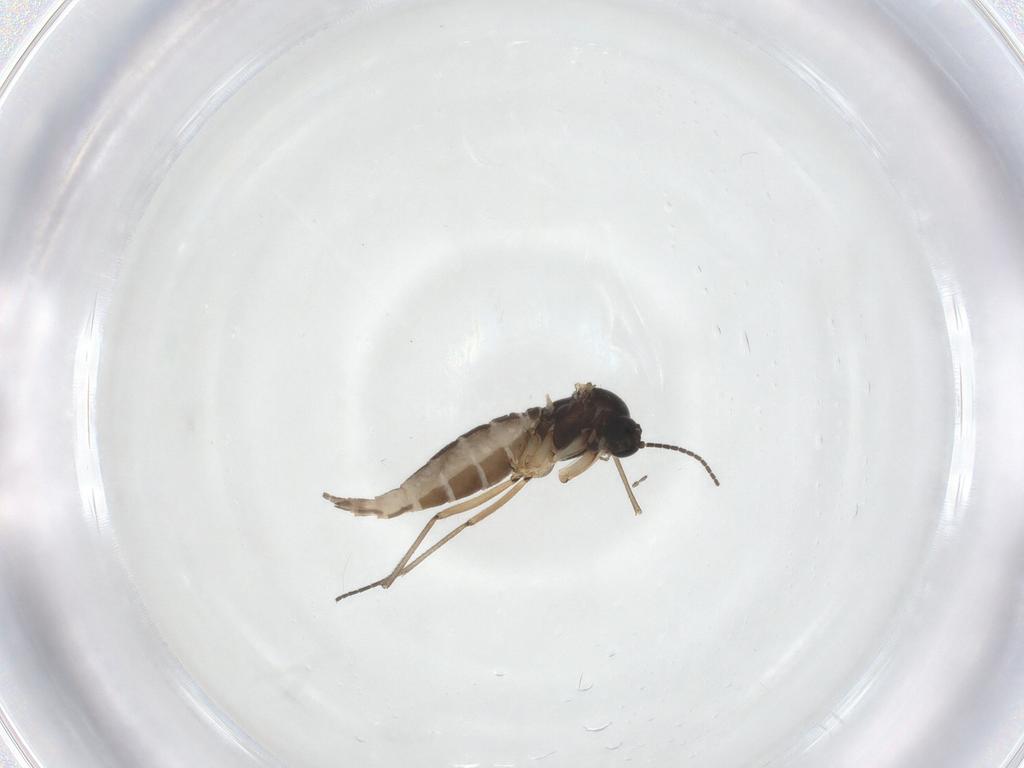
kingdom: Animalia
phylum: Arthropoda
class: Insecta
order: Diptera
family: Sciaridae
